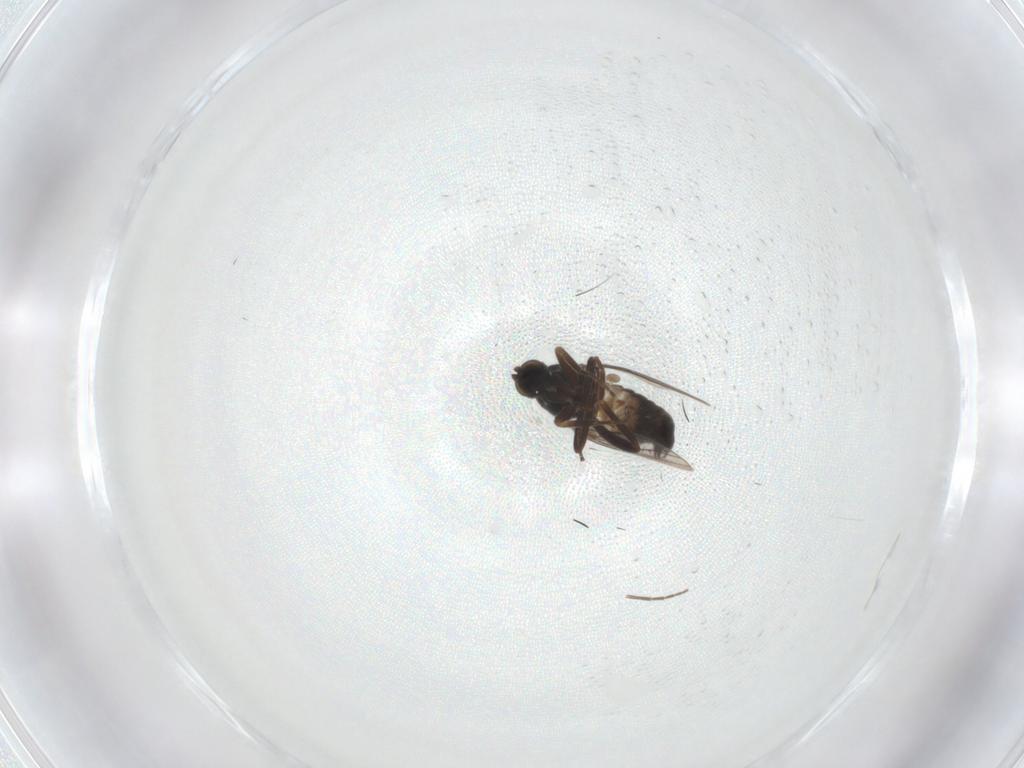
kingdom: Animalia
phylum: Arthropoda
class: Insecta
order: Diptera
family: Hybotidae
